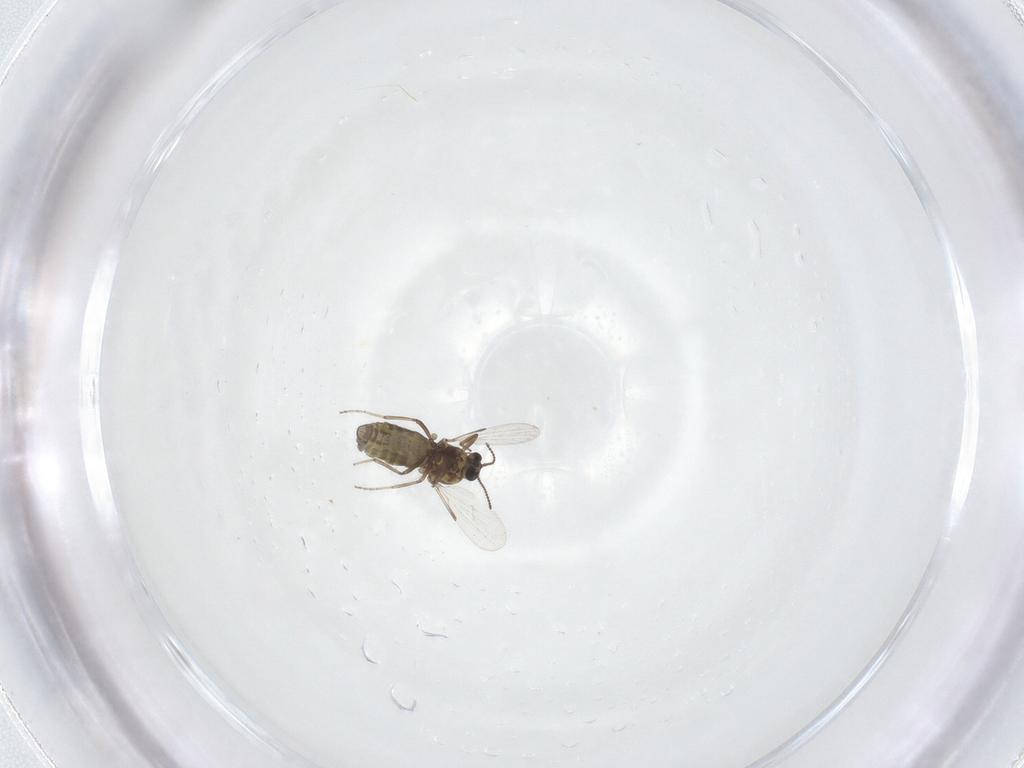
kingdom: Animalia
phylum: Arthropoda
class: Insecta
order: Diptera
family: Ceratopogonidae
